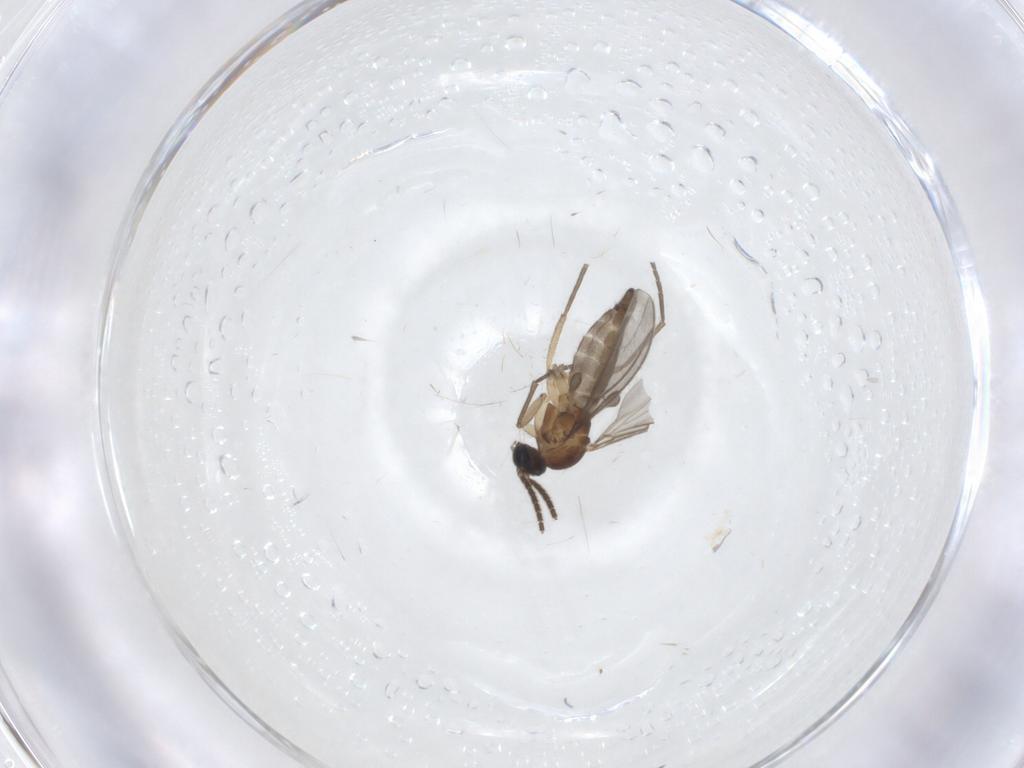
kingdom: Animalia
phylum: Arthropoda
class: Insecta
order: Diptera
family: Sciaridae
